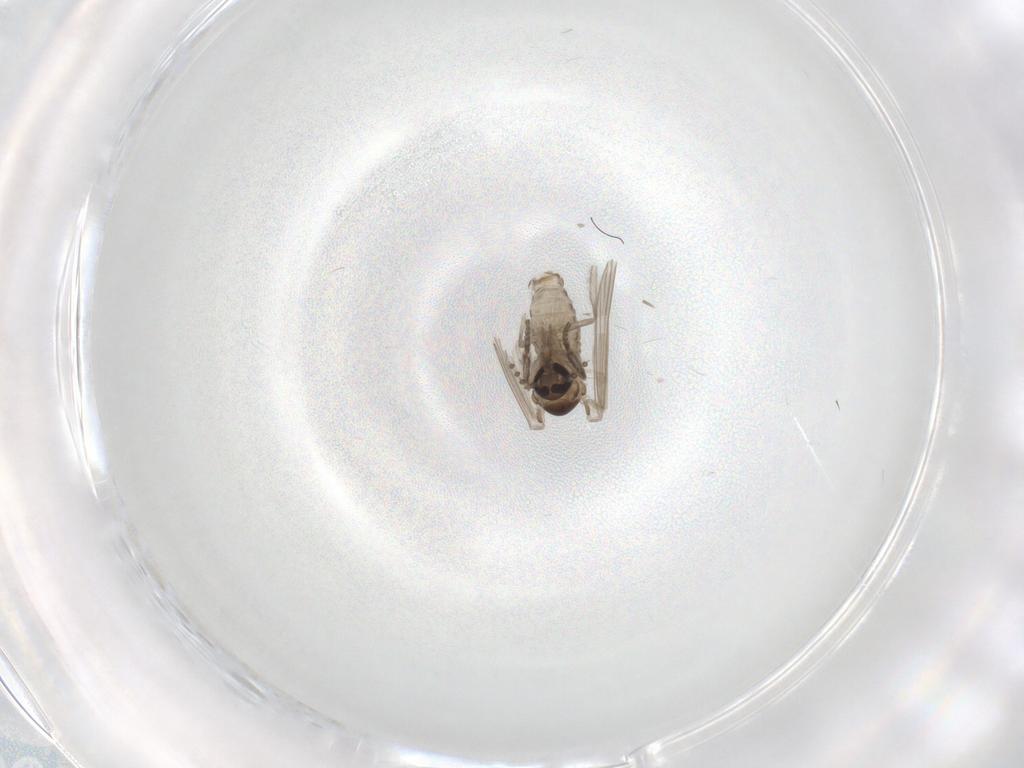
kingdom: Animalia
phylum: Arthropoda
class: Insecta
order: Diptera
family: Psychodidae
